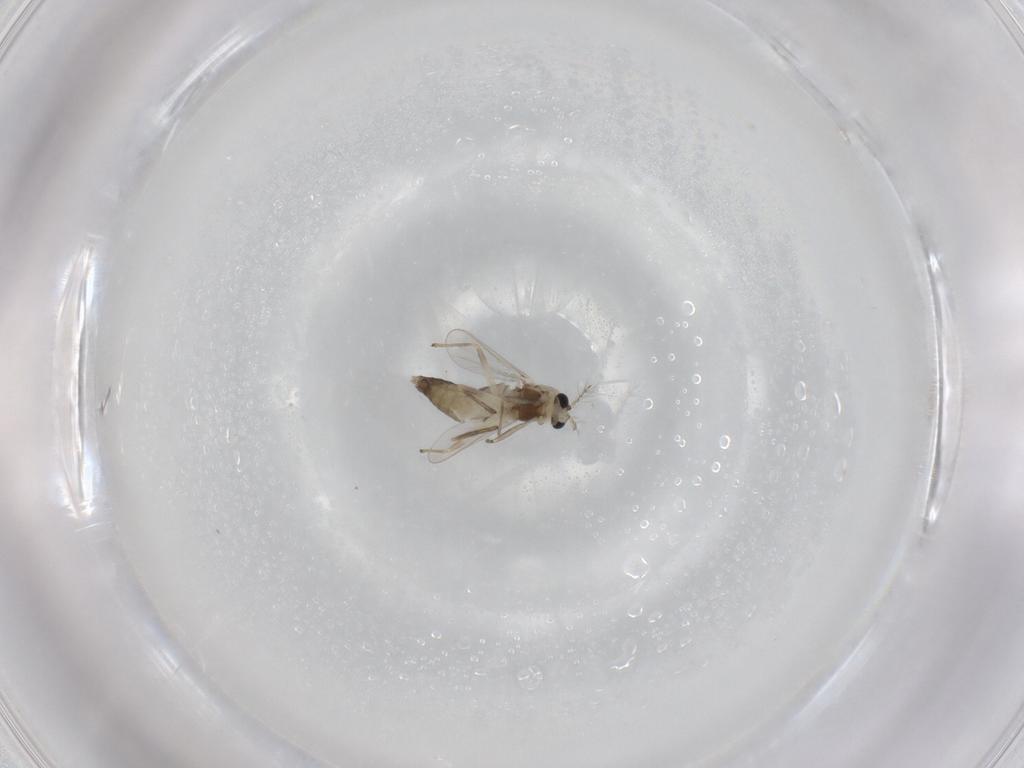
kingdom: Animalia
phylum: Arthropoda
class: Insecta
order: Diptera
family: Chironomidae
